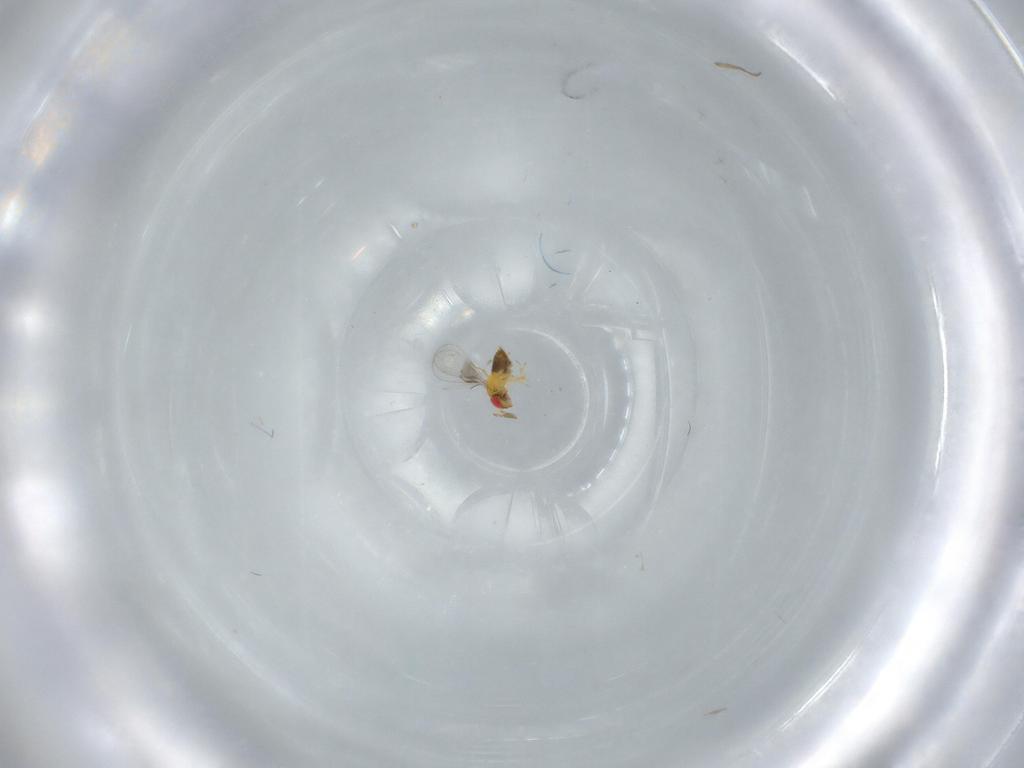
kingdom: Animalia
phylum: Arthropoda
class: Insecta
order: Hymenoptera
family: Trichogrammatidae
